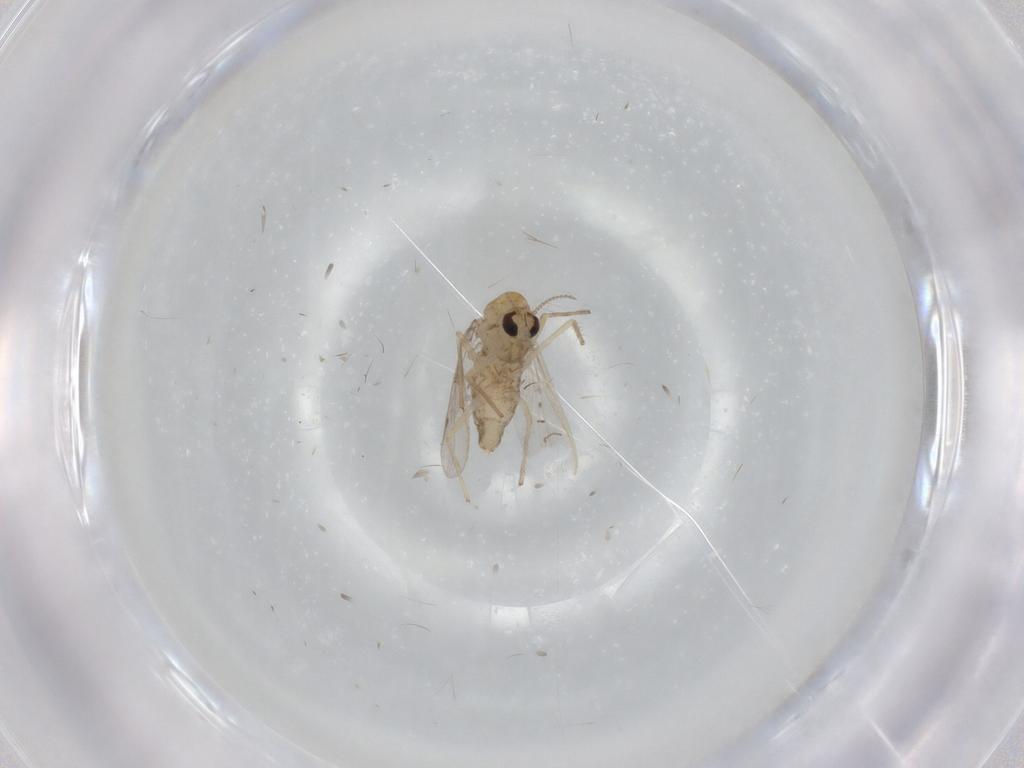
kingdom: Animalia
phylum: Arthropoda
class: Insecta
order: Diptera
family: Chironomidae
